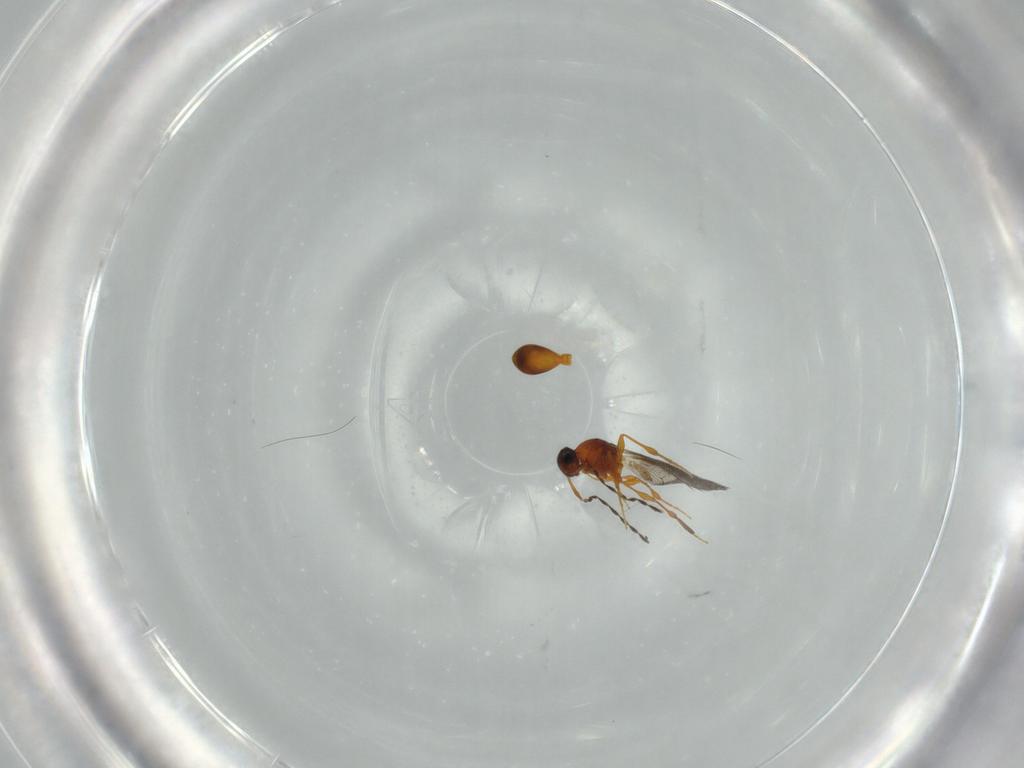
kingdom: Animalia
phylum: Arthropoda
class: Insecta
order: Hymenoptera
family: Platygastridae
